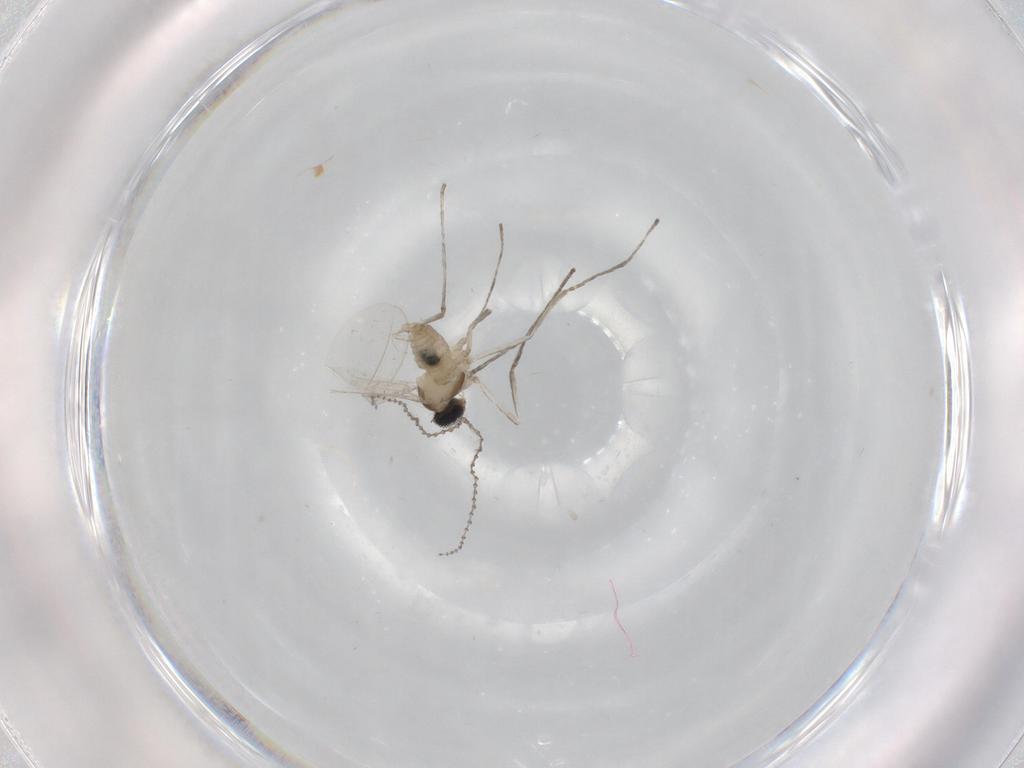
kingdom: Animalia
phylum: Arthropoda
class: Insecta
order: Diptera
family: Cecidomyiidae
